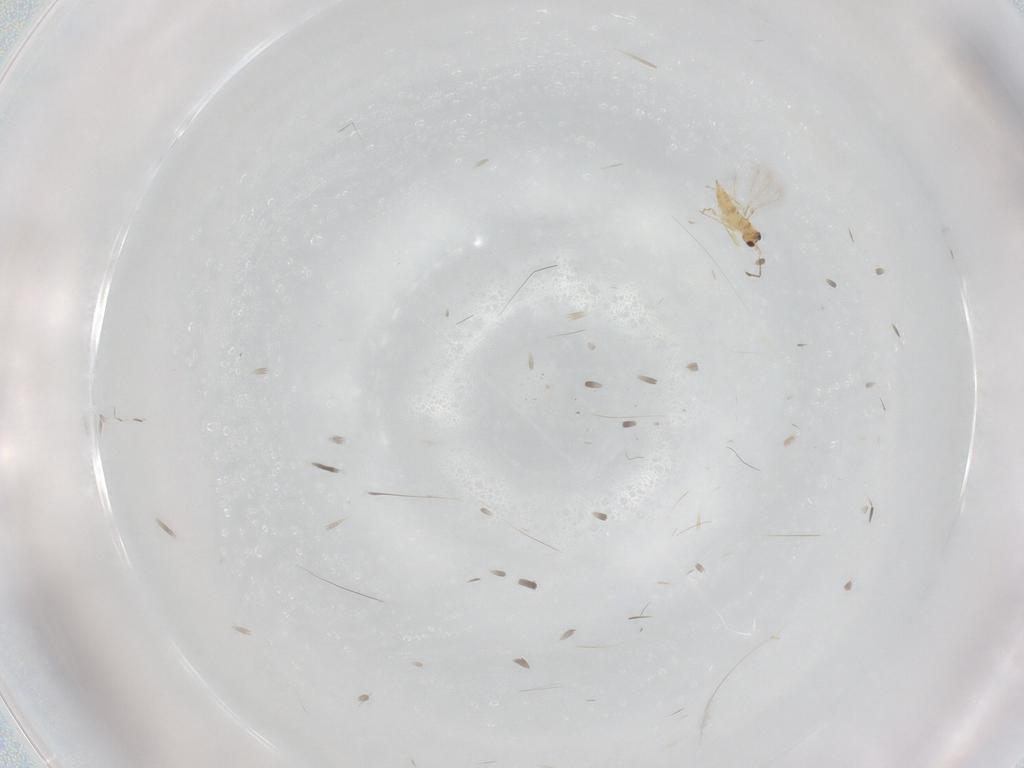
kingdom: Animalia
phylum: Arthropoda
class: Insecta
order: Hymenoptera
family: Mymaridae
